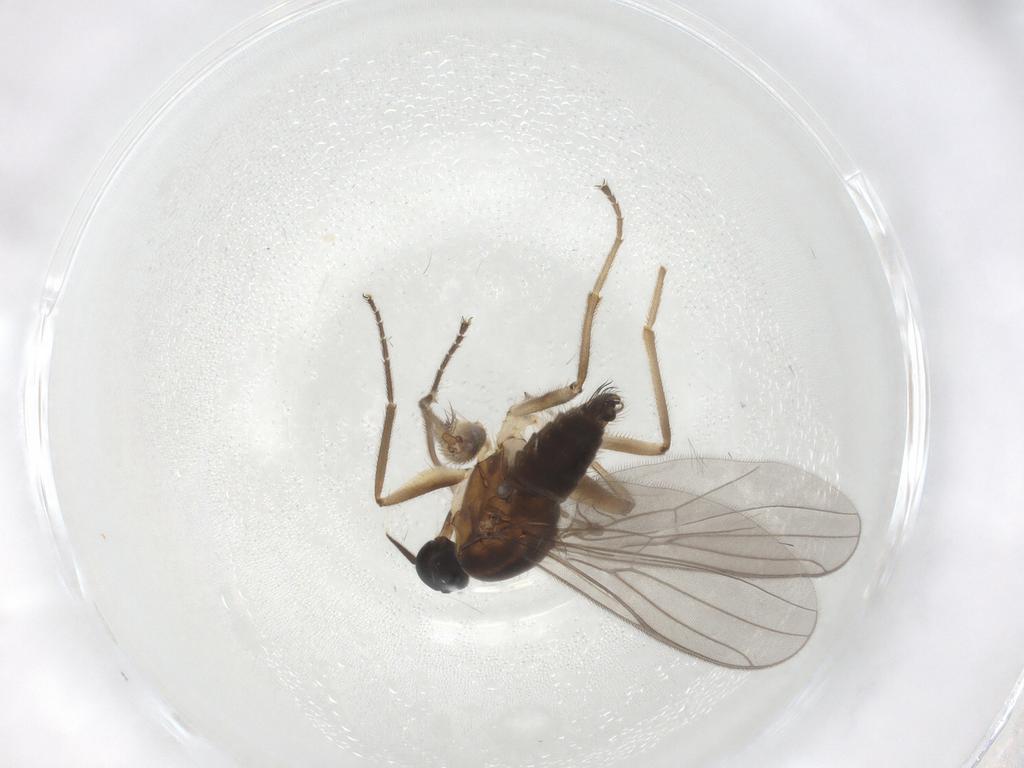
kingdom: Animalia
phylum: Arthropoda
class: Insecta
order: Diptera
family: Hybotidae
